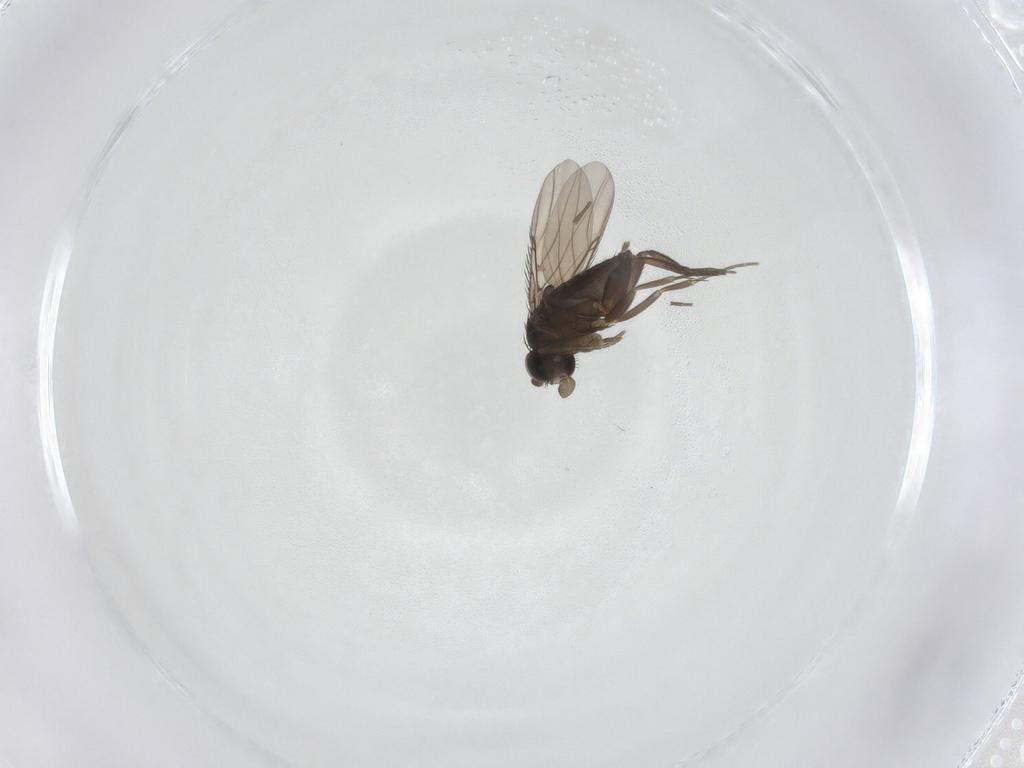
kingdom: Animalia
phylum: Arthropoda
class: Insecta
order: Diptera
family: Phoridae
